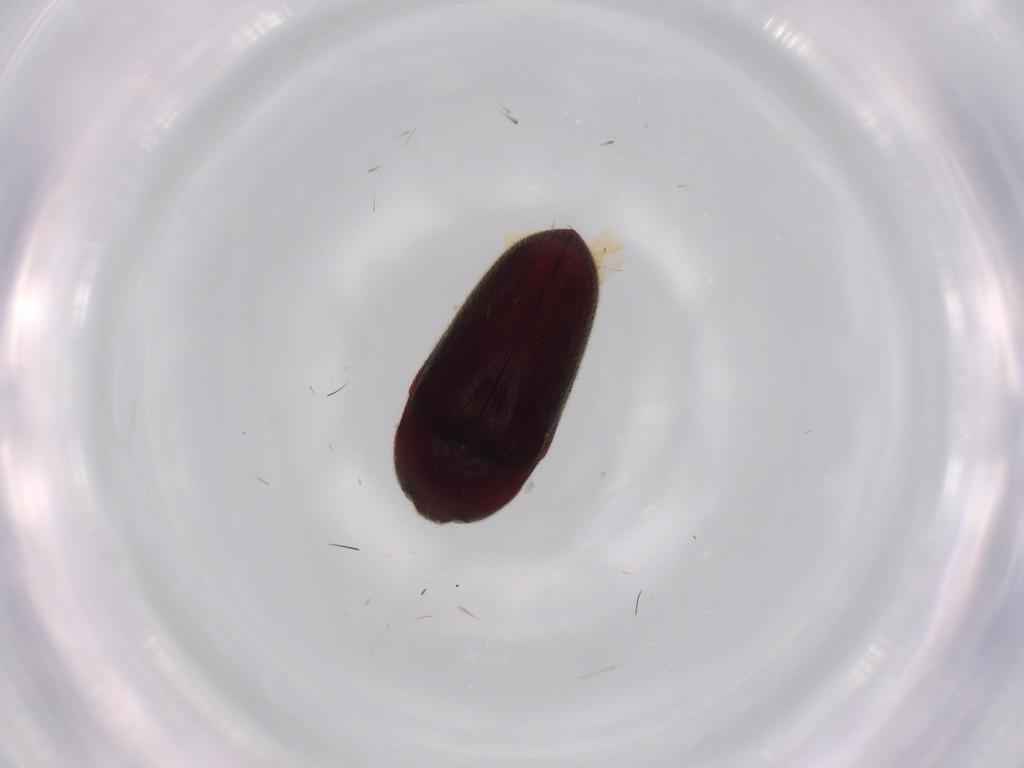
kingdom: Animalia
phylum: Arthropoda
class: Insecta
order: Coleoptera
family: Throscidae
